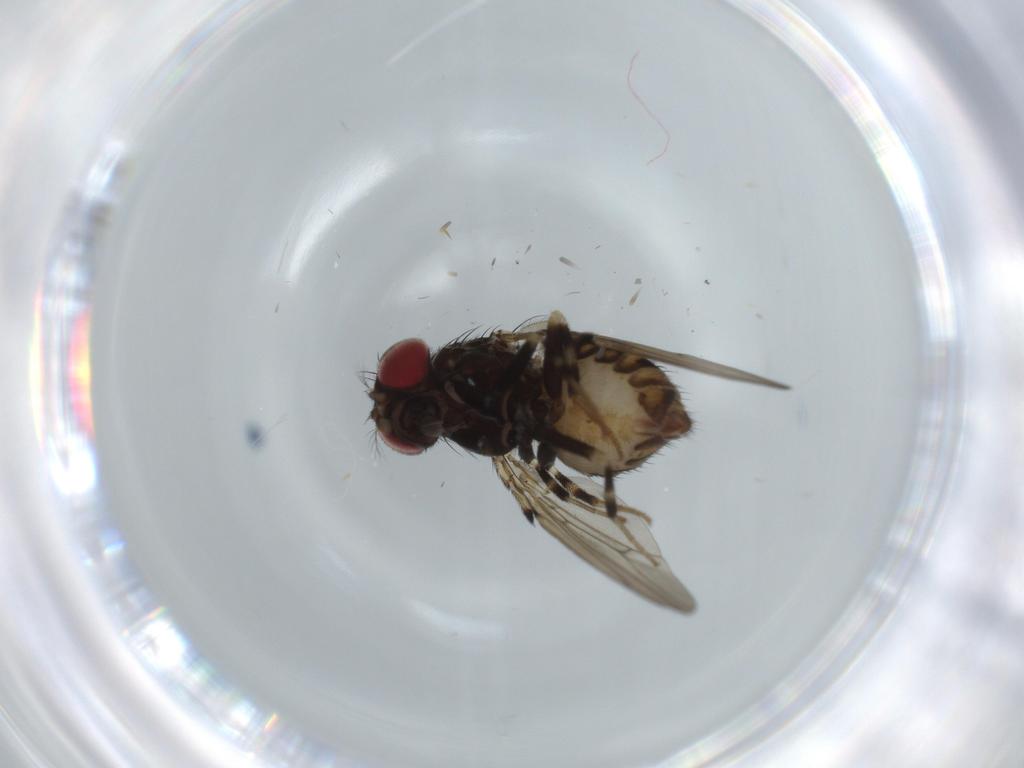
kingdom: Animalia
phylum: Arthropoda
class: Insecta
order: Diptera
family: Drosophilidae
